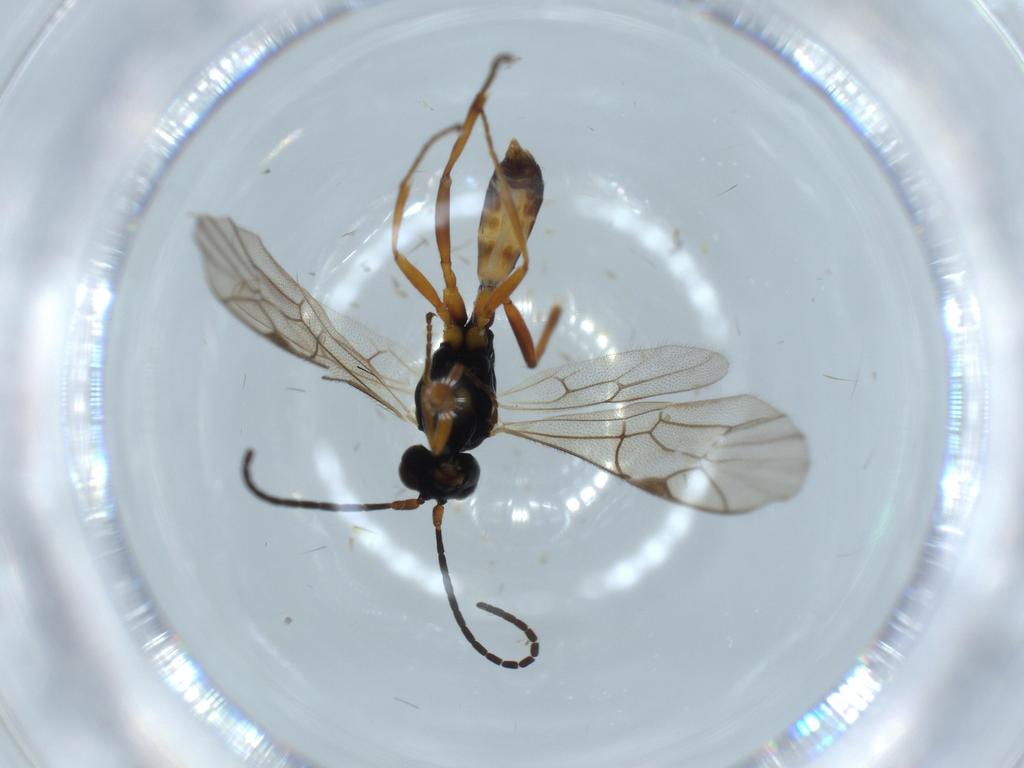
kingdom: Animalia
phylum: Arthropoda
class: Insecta
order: Hymenoptera
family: Ichneumonidae
